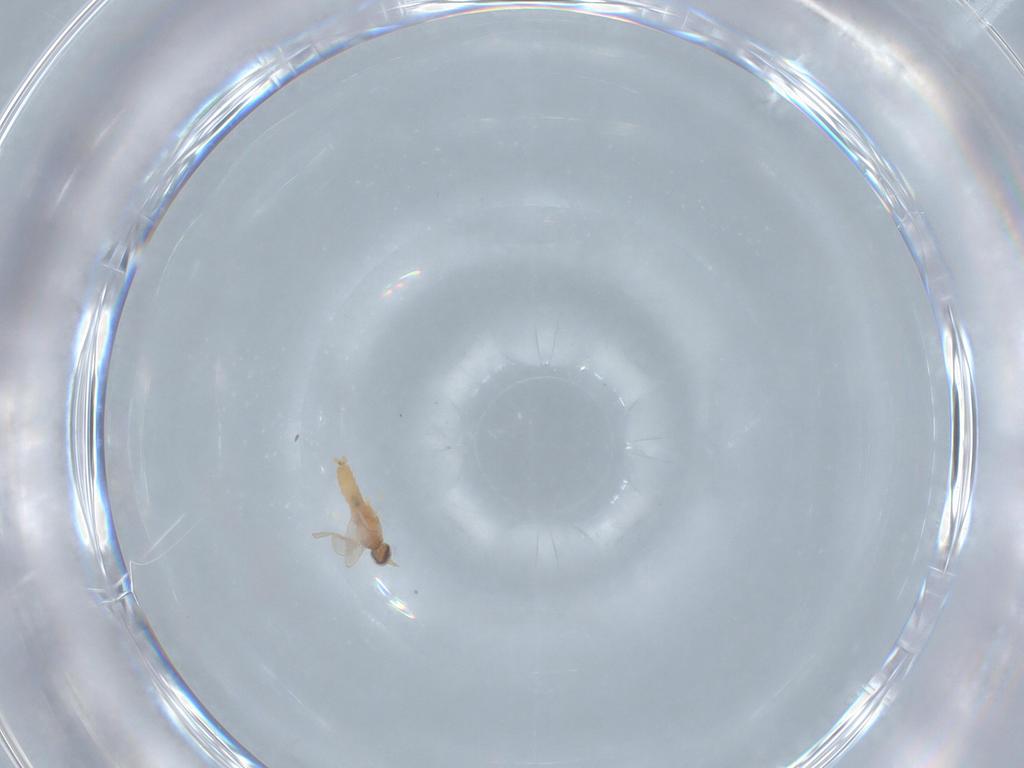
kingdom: Animalia
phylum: Arthropoda
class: Insecta
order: Diptera
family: Cecidomyiidae
